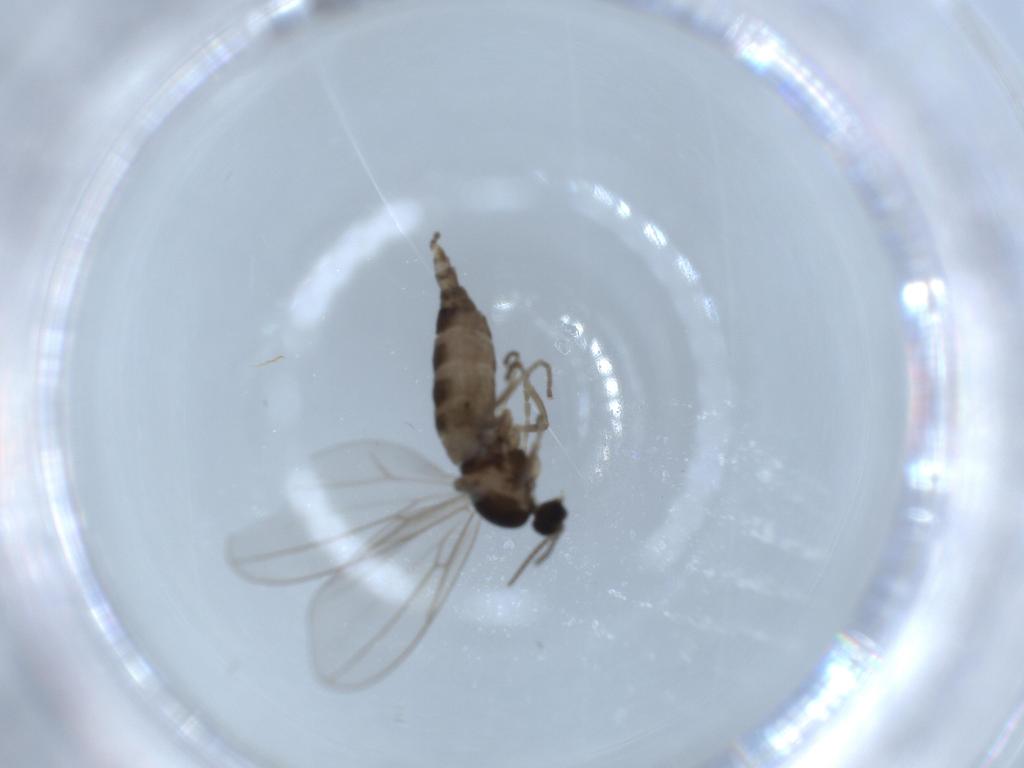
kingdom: Animalia
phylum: Arthropoda
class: Insecta
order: Diptera
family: Cecidomyiidae
